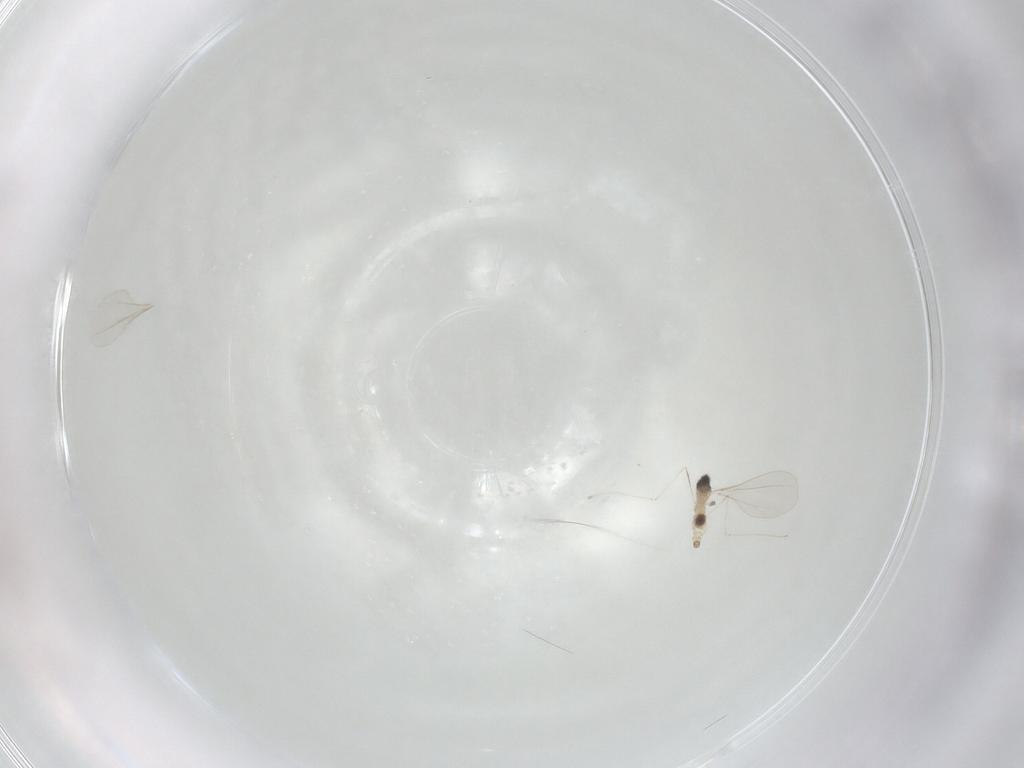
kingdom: Animalia
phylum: Arthropoda
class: Insecta
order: Diptera
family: Cecidomyiidae
